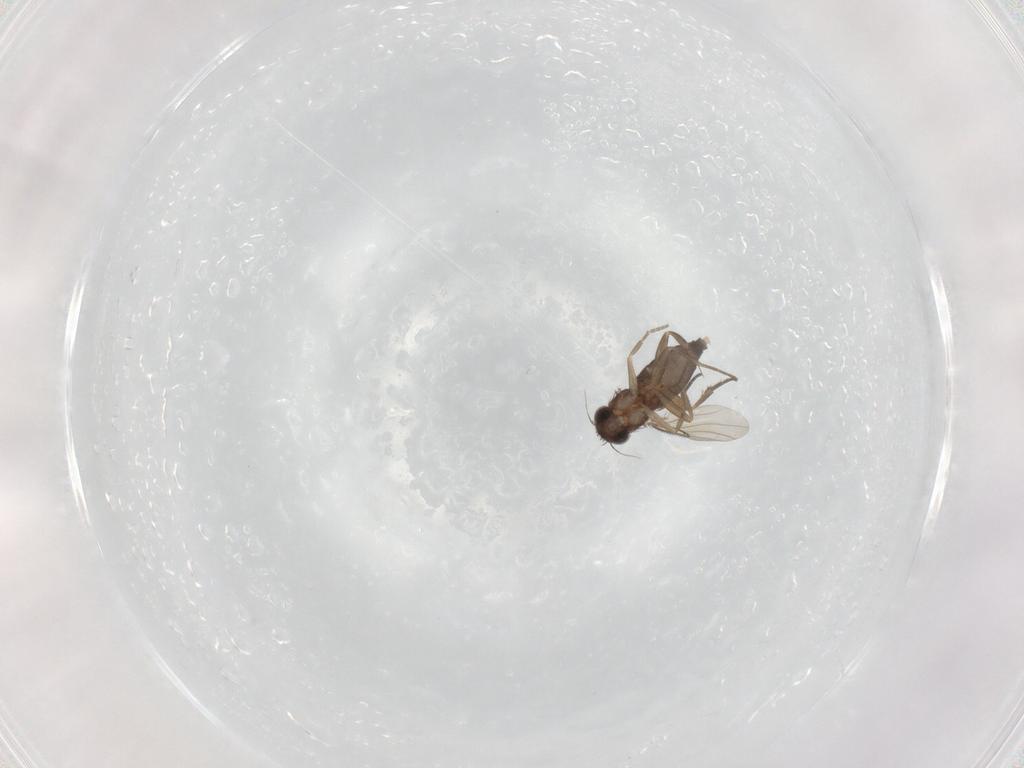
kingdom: Animalia
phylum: Arthropoda
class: Insecta
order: Diptera
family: Phoridae
